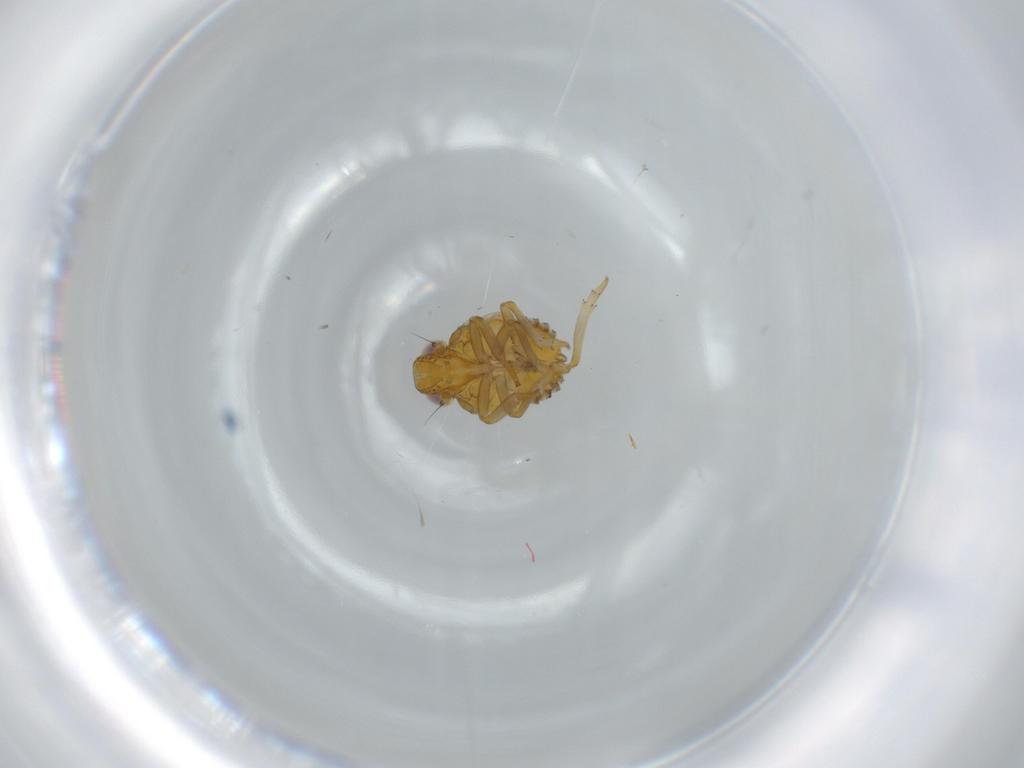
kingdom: Animalia
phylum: Arthropoda
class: Insecta
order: Hemiptera
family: Issidae
